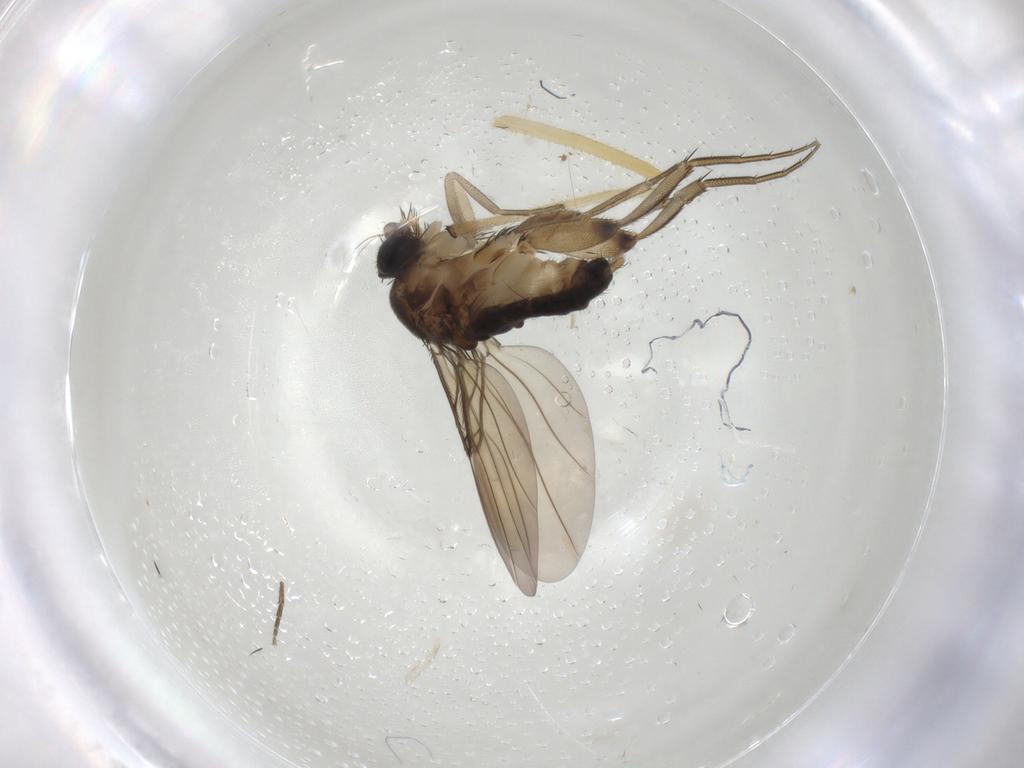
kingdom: Animalia
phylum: Arthropoda
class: Insecta
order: Diptera
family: Phoridae
